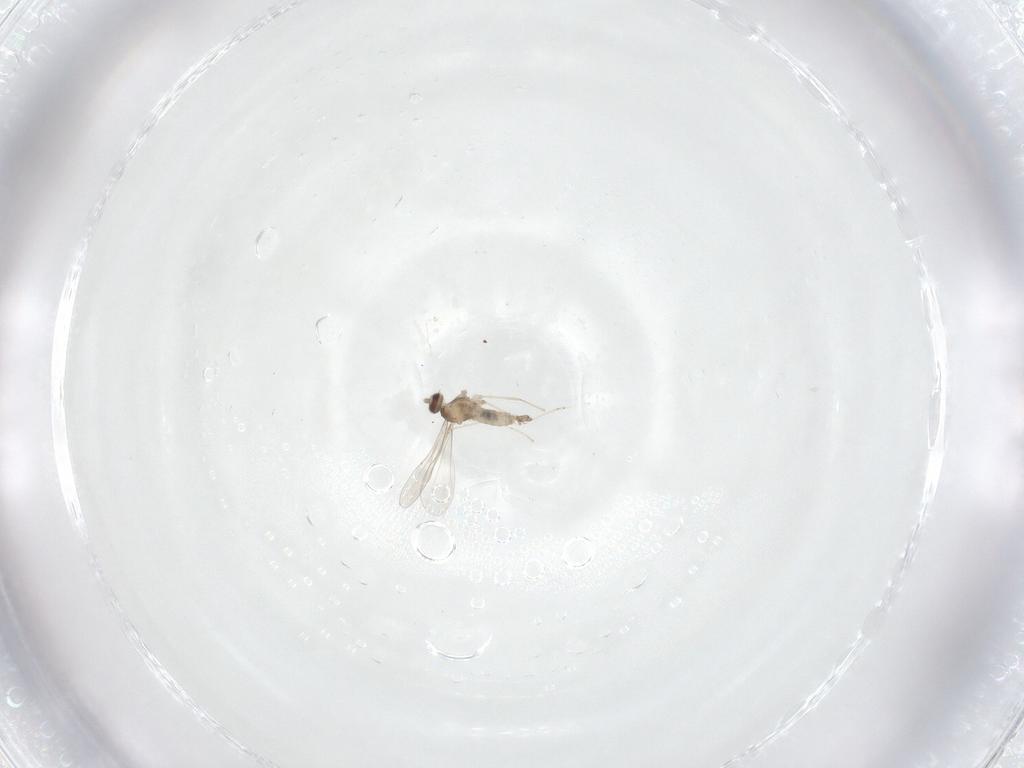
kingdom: Animalia
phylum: Arthropoda
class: Insecta
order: Diptera
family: Cecidomyiidae
